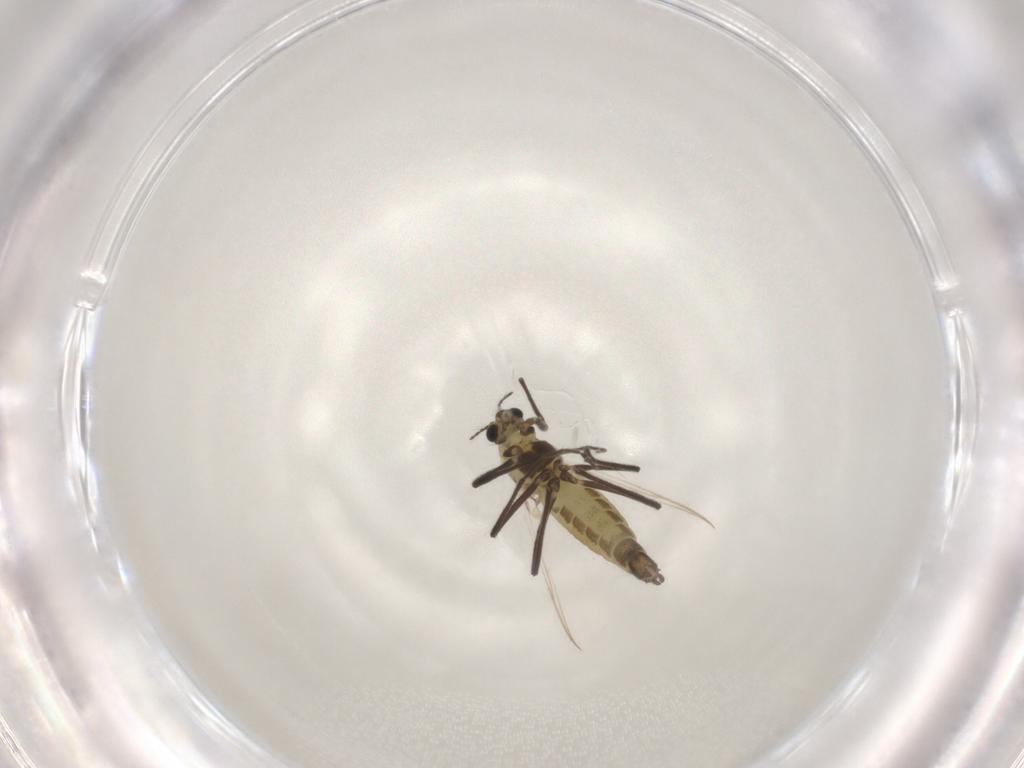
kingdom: Animalia
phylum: Arthropoda
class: Insecta
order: Diptera
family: Chironomidae
